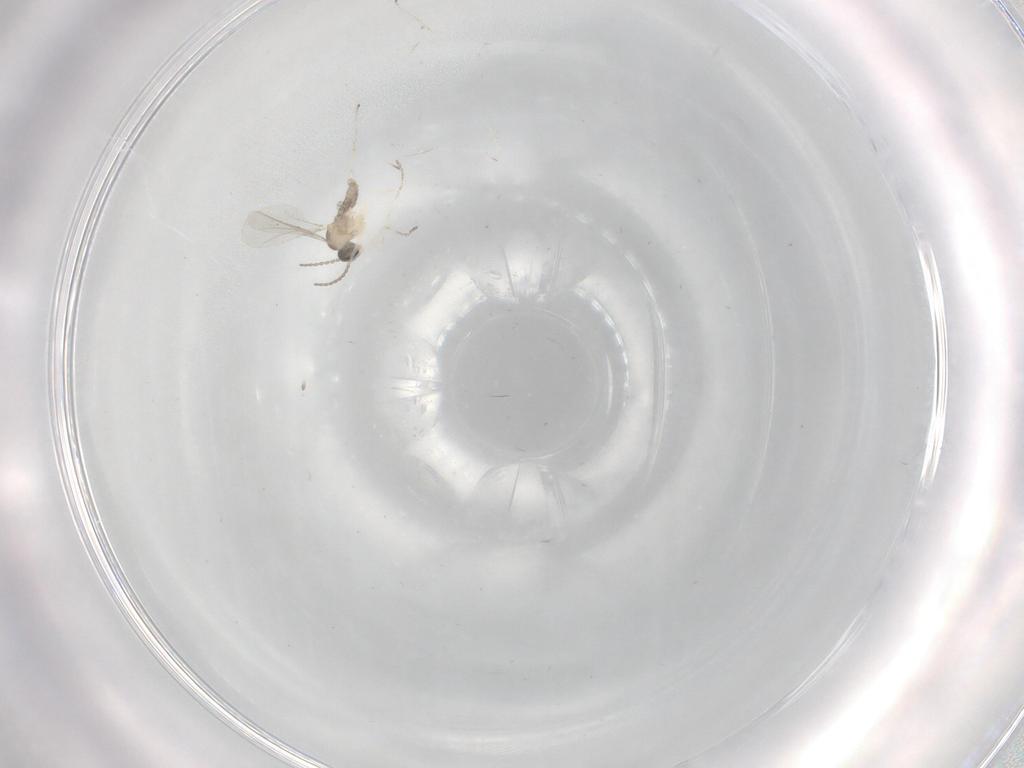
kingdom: Animalia
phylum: Arthropoda
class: Insecta
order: Diptera
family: Cecidomyiidae
